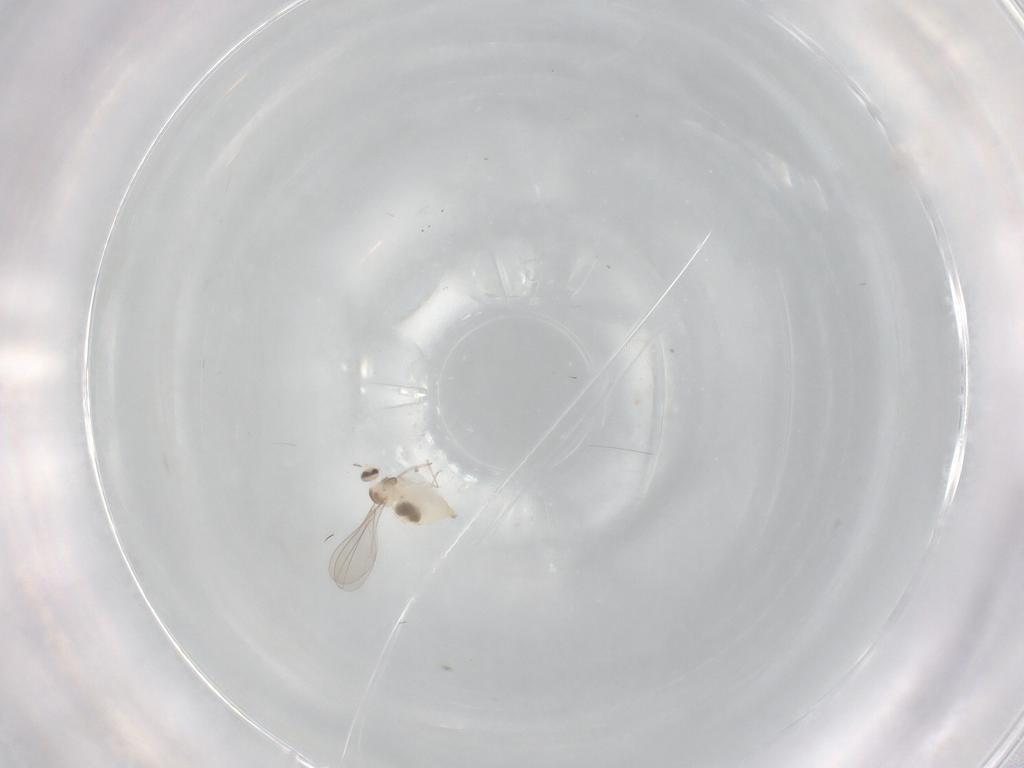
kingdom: Animalia
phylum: Arthropoda
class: Insecta
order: Diptera
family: Cecidomyiidae
